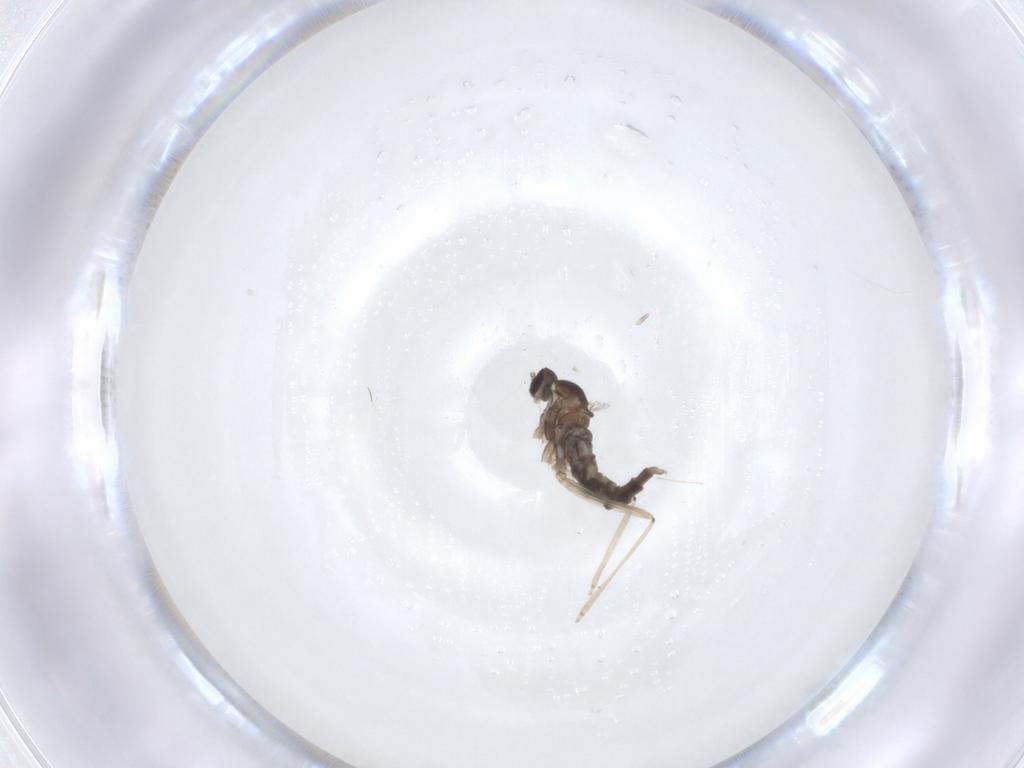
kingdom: Animalia
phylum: Arthropoda
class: Insecta
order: Diptera
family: Cecidomyiidae
